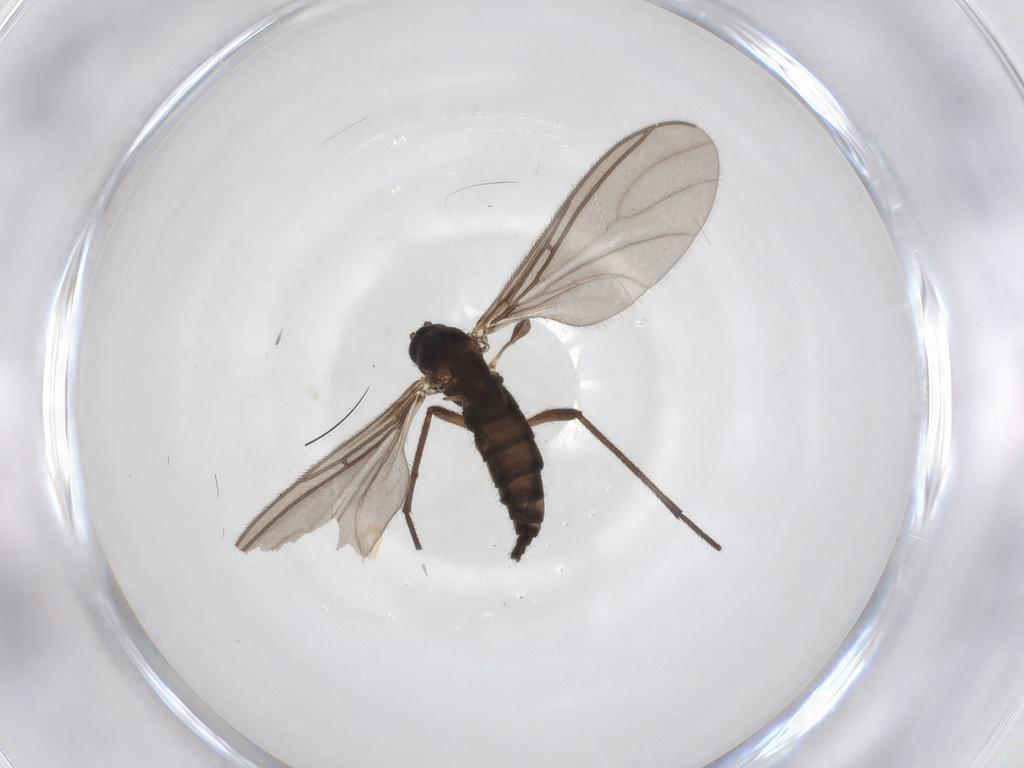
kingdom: Animalia
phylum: Arthropoda
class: Insecta
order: Diptera
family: Sciaridae
